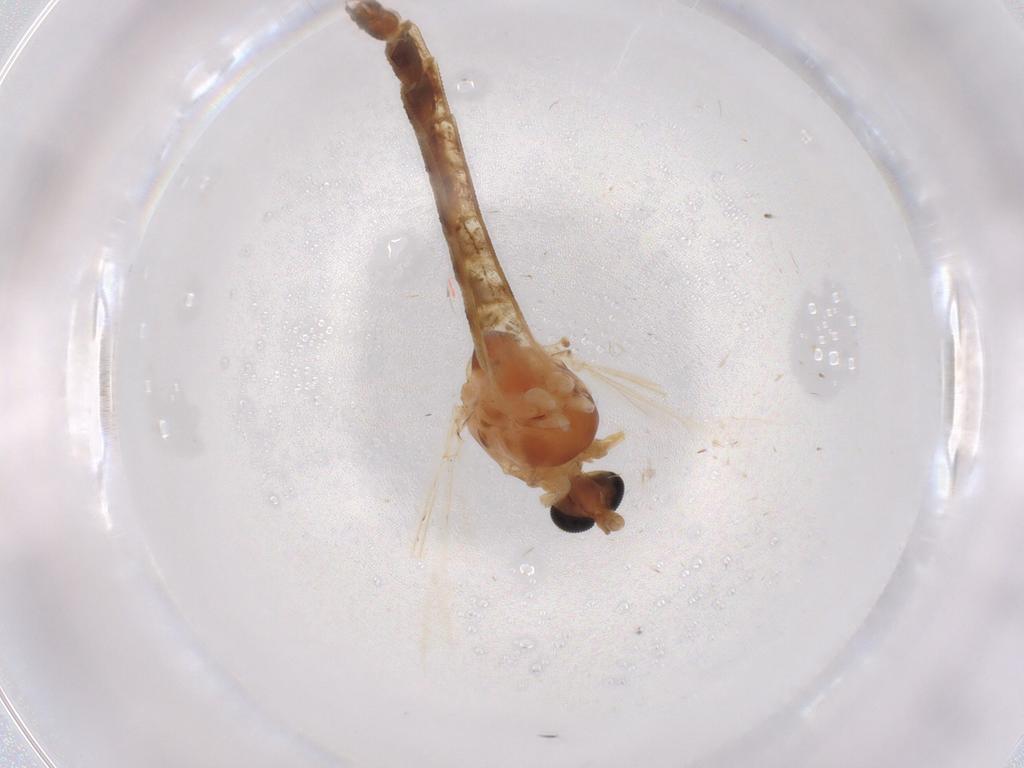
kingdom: Animalia
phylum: Arthropoda
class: Insecta
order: Diptera
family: Chironomidae
